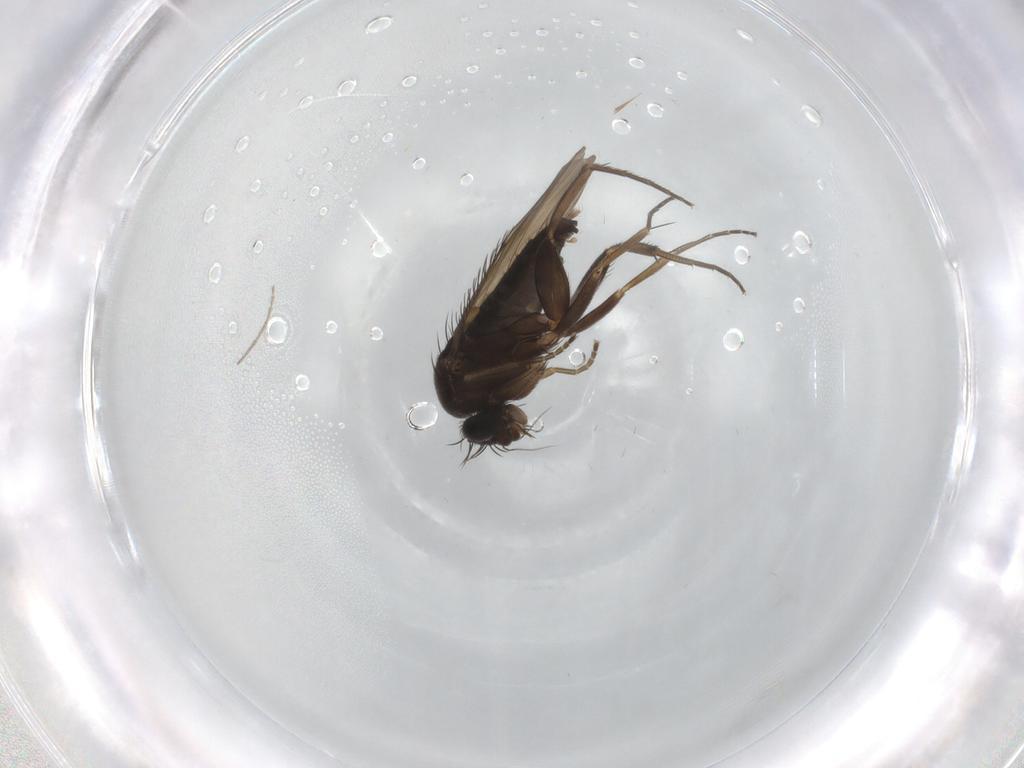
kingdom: Animalia
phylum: Arthropoda
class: Insecta
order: Diptera
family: Phoridae
